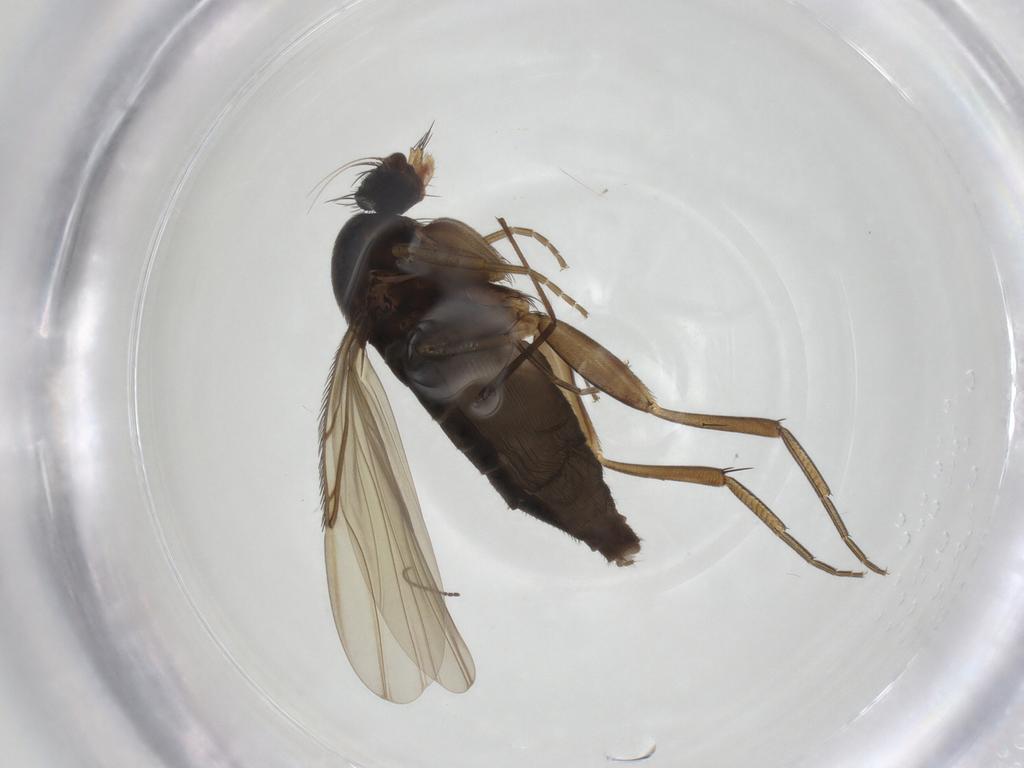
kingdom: Animalia
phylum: Arthropoda
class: Insecta
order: Diptera
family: Phoridae
